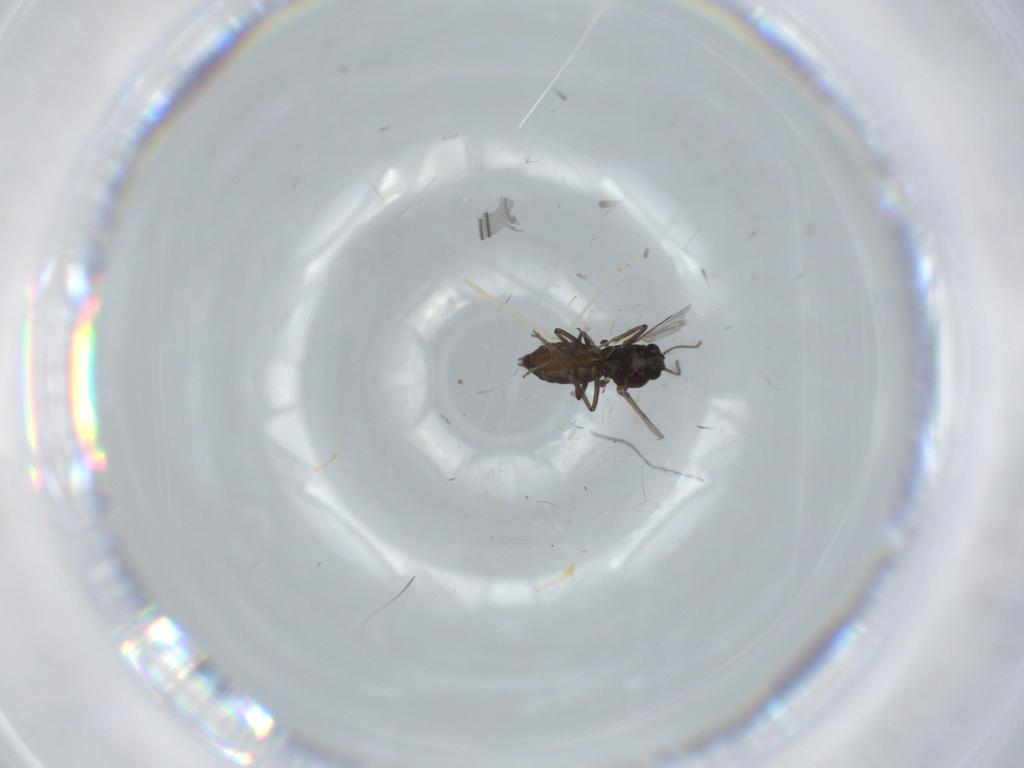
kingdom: Animalia
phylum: Arthropoda
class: Insecta
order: Diptera
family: Ceratopogonidae
